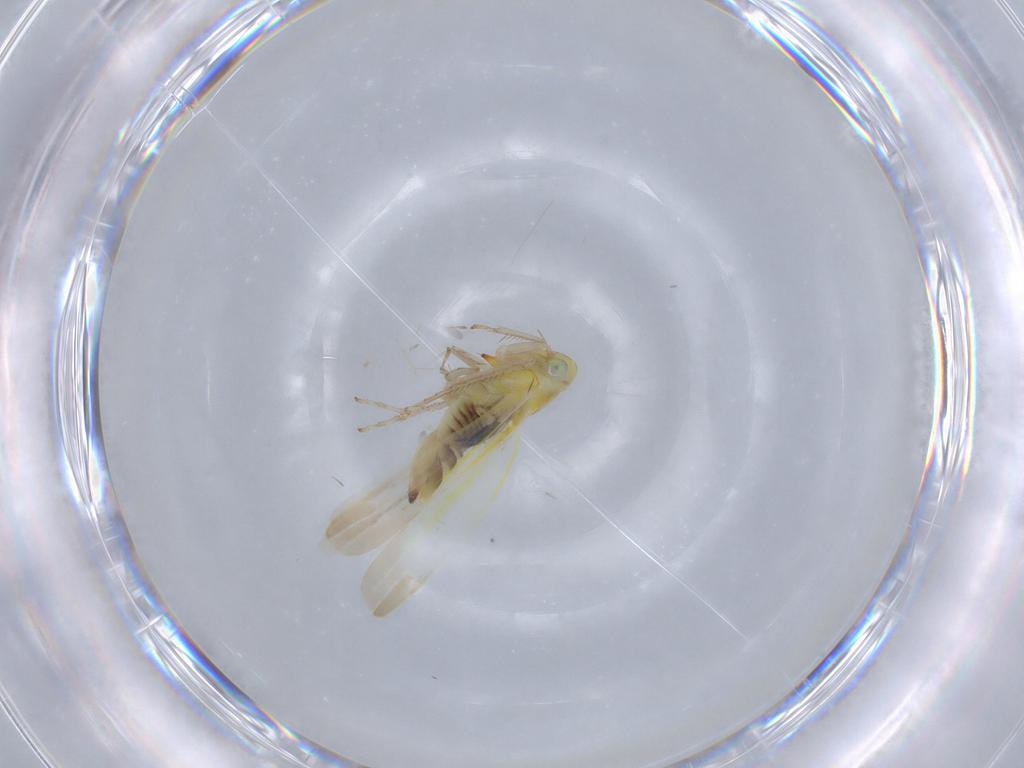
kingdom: Animalia
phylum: Arthropoda
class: Insecta
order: Hemiptera
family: Cicadellidae
